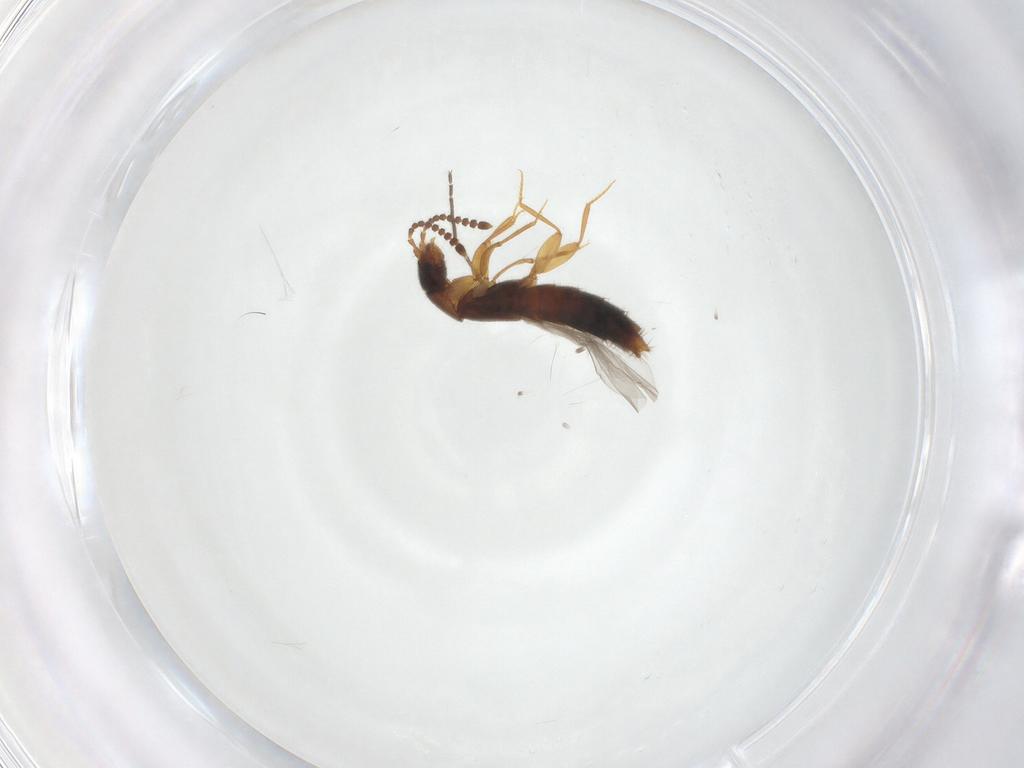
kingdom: Animalia
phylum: Arthropoda
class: Insecta
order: Coleoptera
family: Staphylinidae
